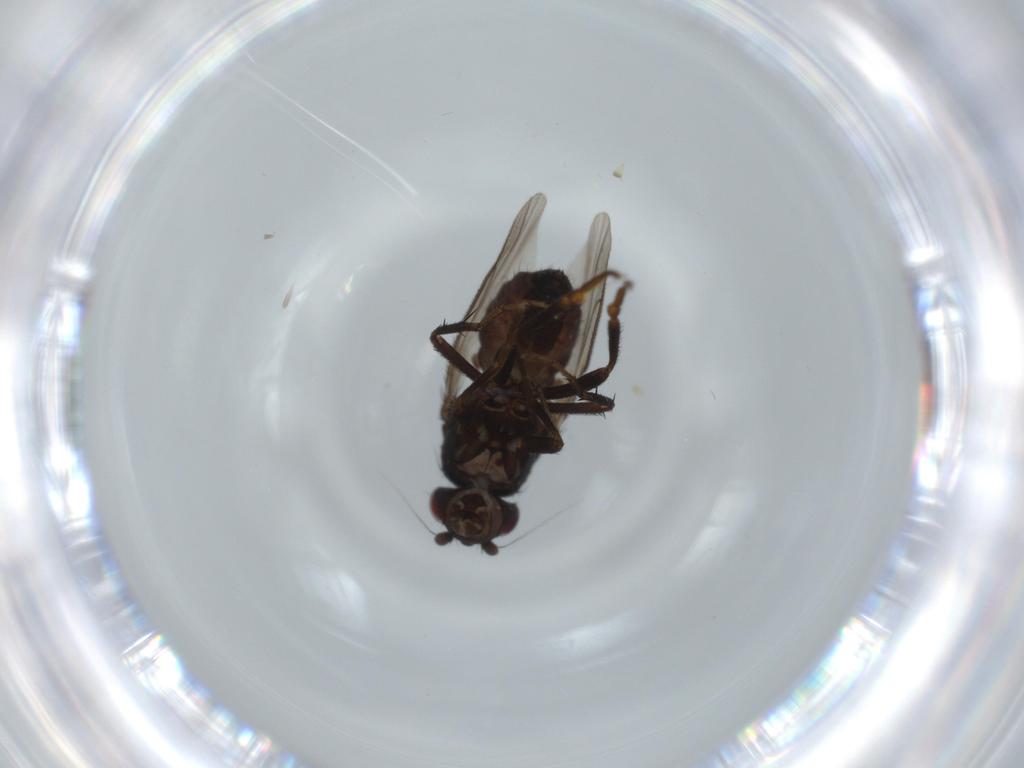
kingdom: Animalia
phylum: Arthropoda
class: Insecta
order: Diptera
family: Sphaeroceridae
